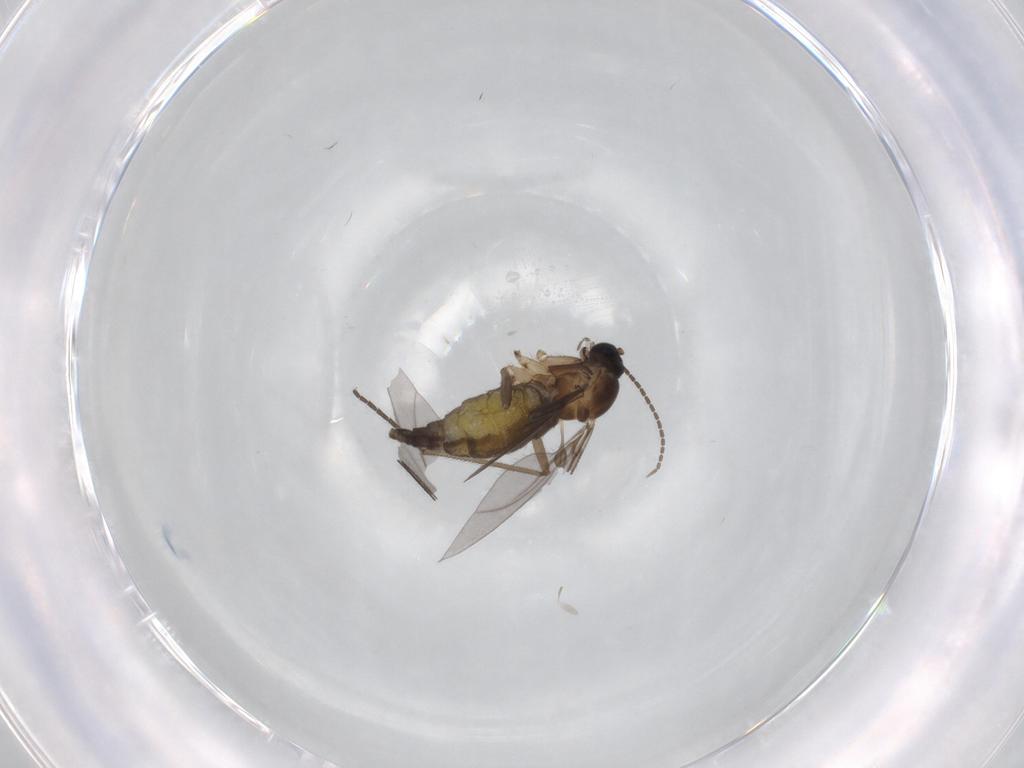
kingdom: Animalia
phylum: Arthropoda
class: Insecta
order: Diptera
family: Sciaridae
